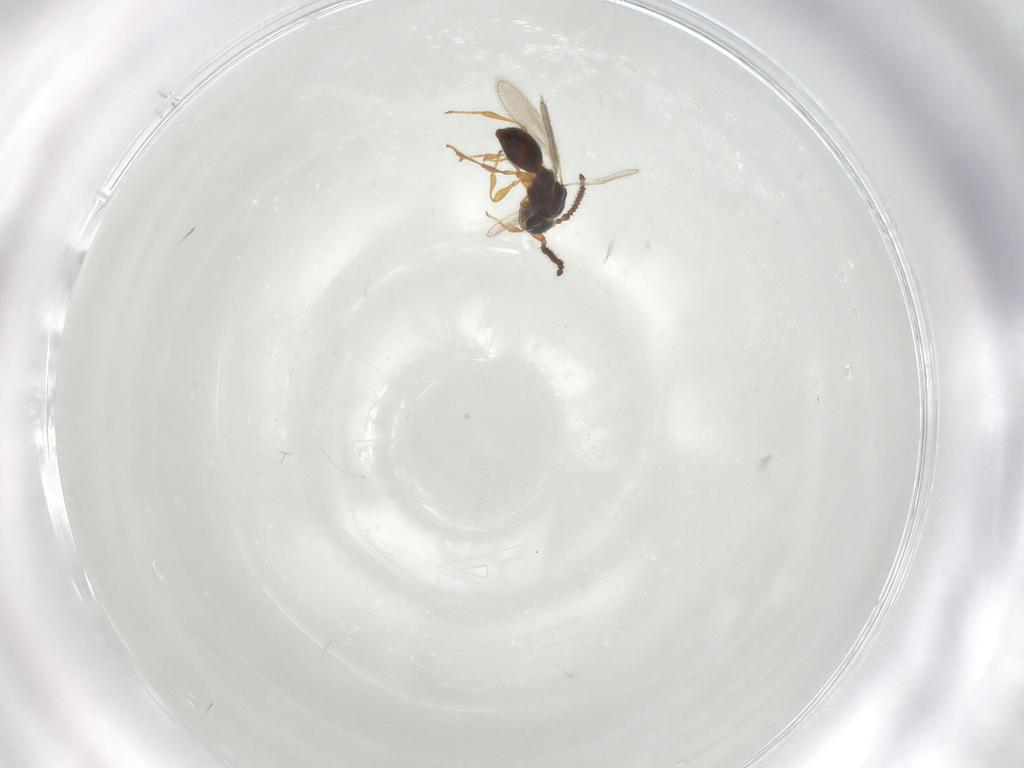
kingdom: Animalia
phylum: Arthropoda
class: Insecta
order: Hymenoptera
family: Diapriidae
